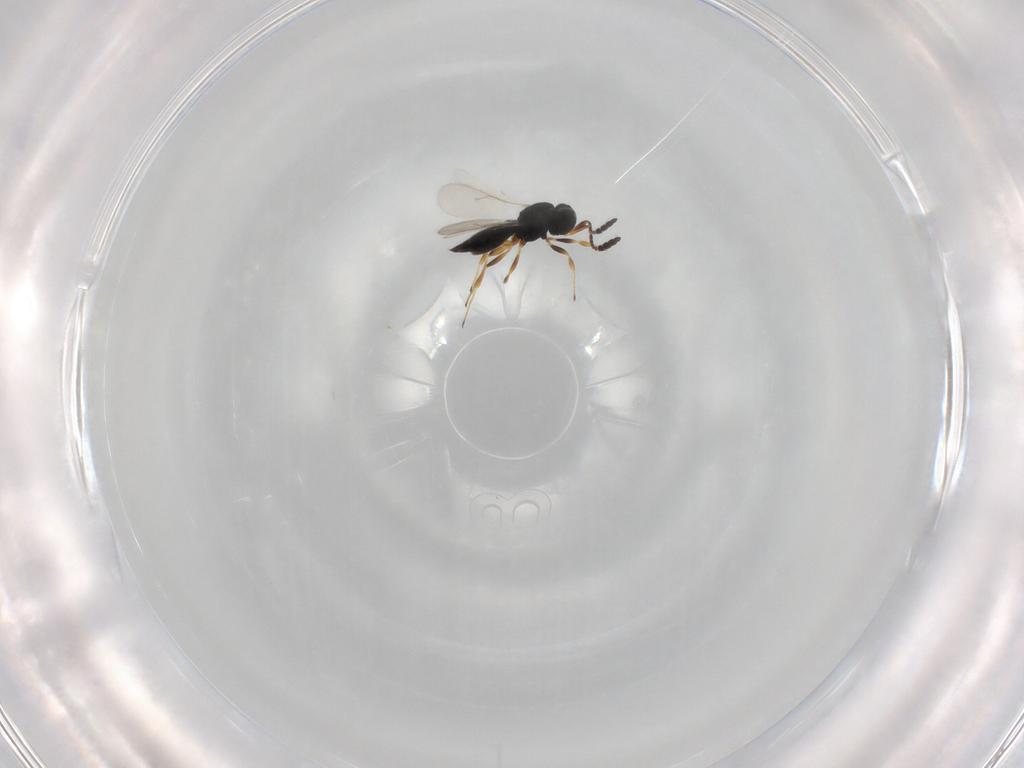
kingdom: Animalia
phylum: Arthropoda
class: Insecta
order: Hymenoptera
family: Scelionidae
